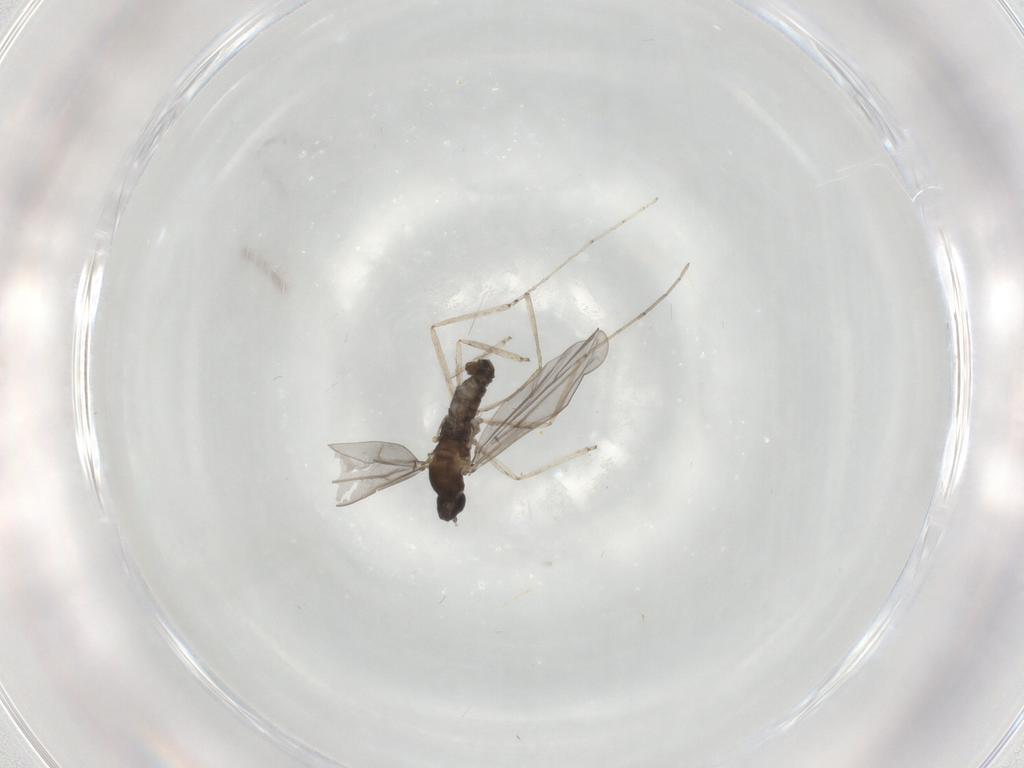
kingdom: Animalia
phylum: Arthropoda
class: Insecta
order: Diptera
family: Cecidomyiidae
